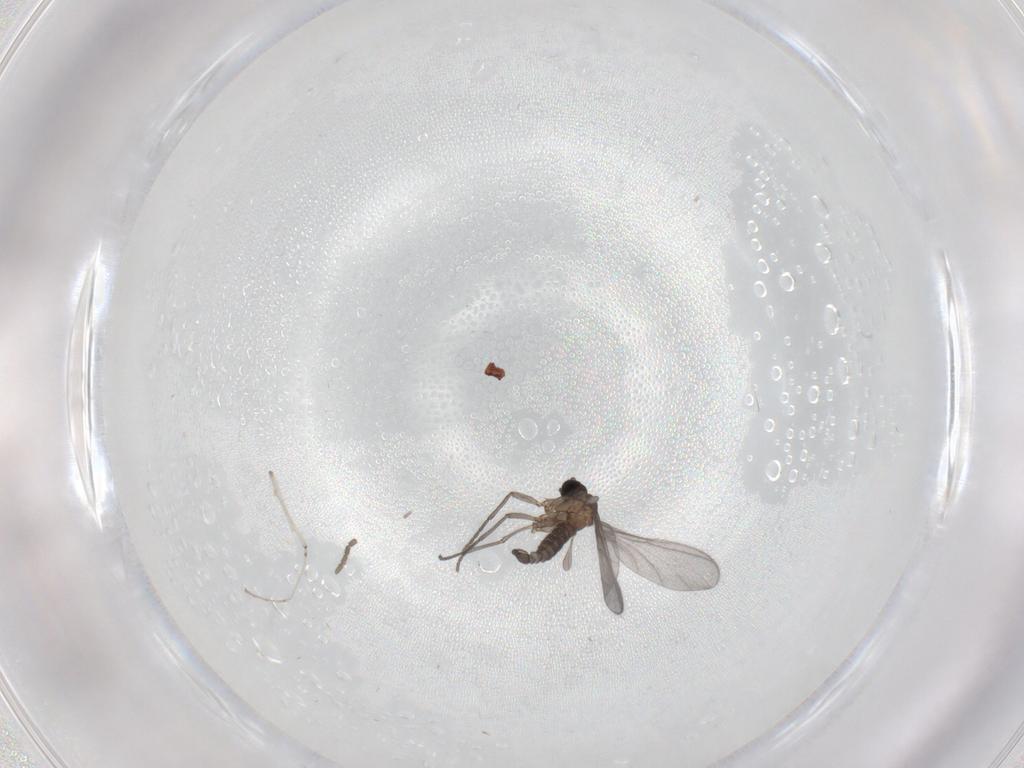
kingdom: Animalia
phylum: Arthropoda
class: Insecta
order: Diptera
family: Sciaridae
